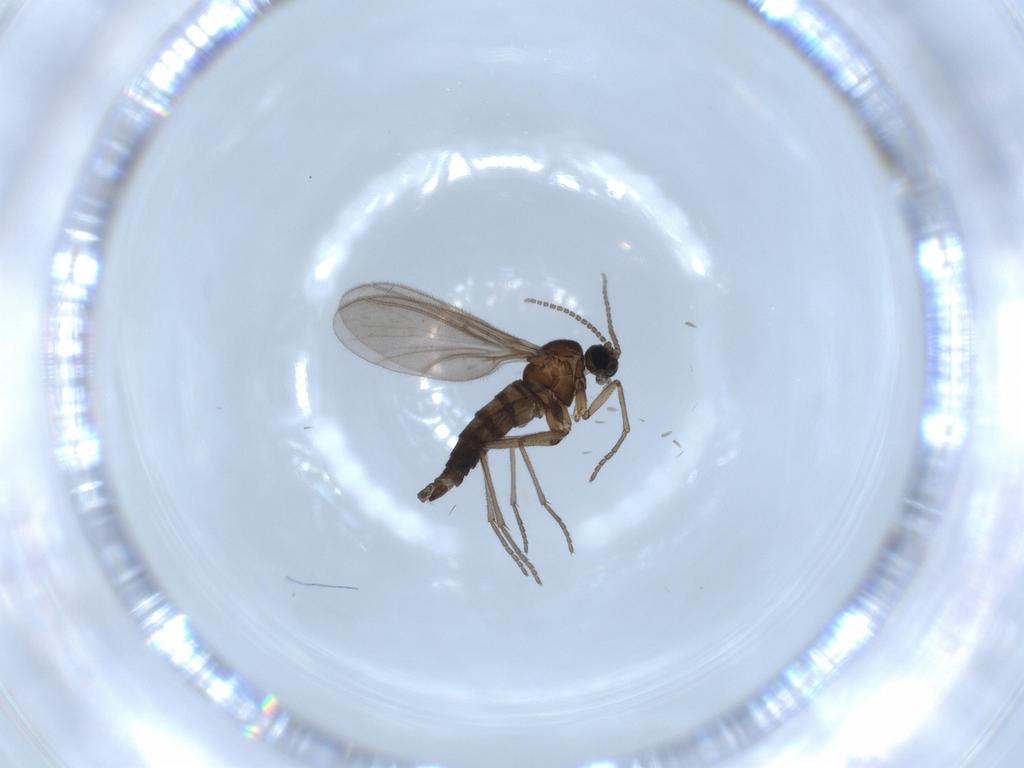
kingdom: Animalia
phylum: Arthropoda
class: Insecta
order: Diptera
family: Sciaridae
